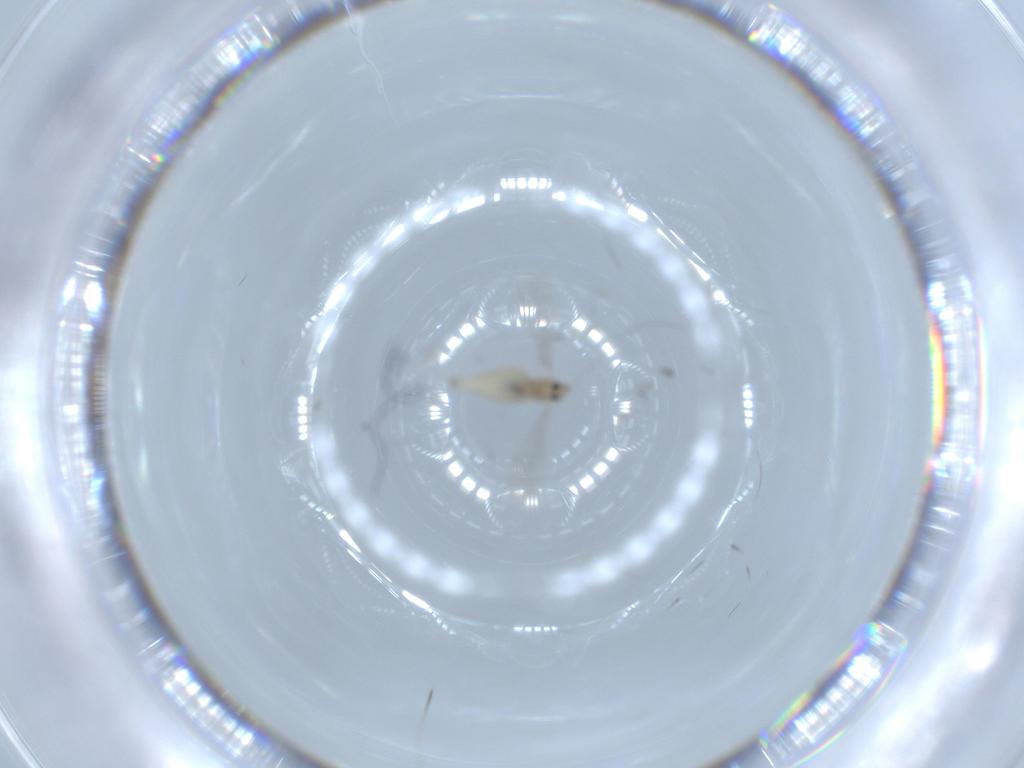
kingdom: Animalia
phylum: Arthropoda
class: Insecta
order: Diptera
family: Cecidomyiidae
